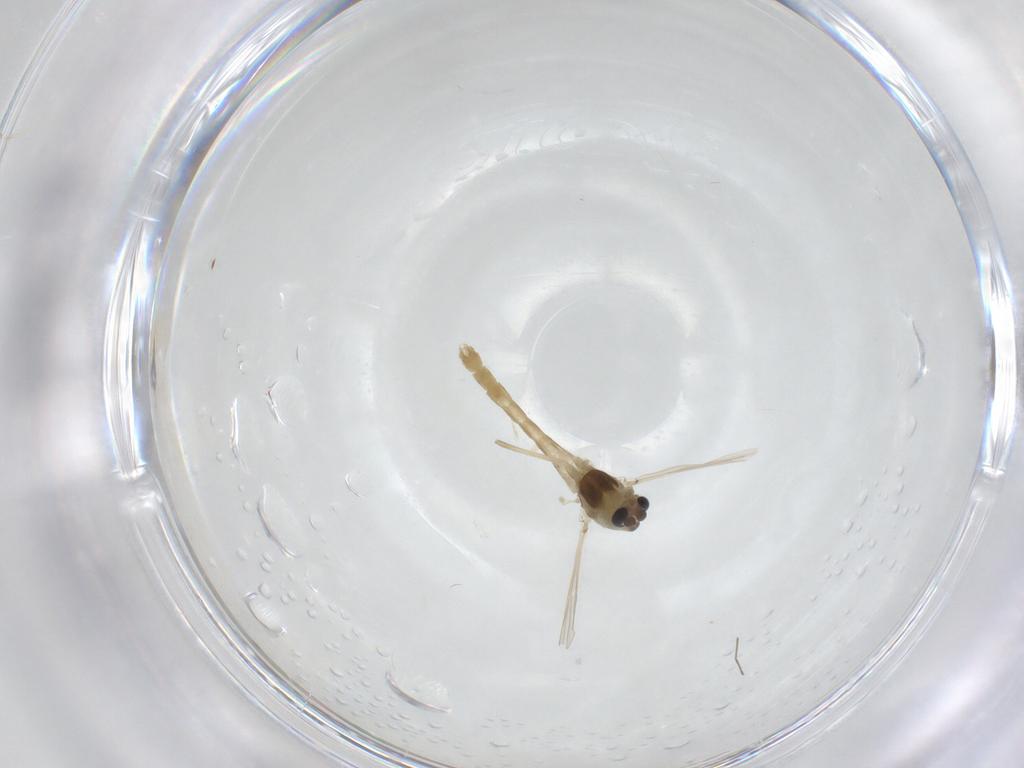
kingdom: Animalia
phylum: Arthropoda
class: Insecta
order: Diptera
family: Chironomidae
